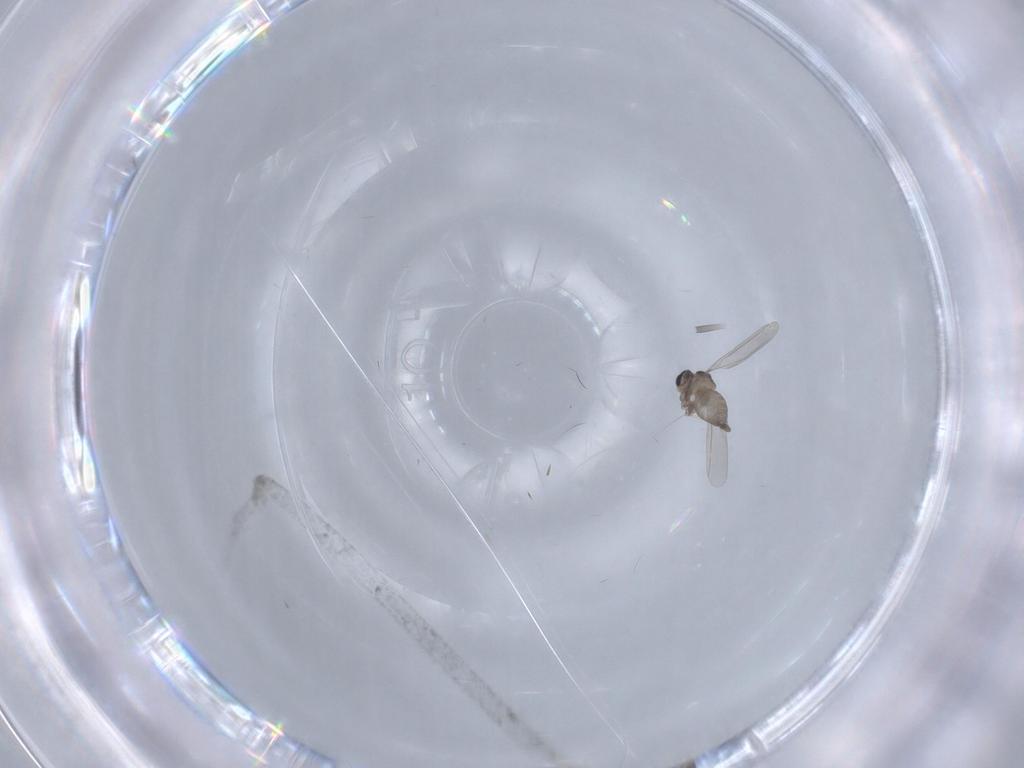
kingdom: Animalia
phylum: Arthropoda
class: Insecta
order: Diptera
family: Cecidomyiidae
